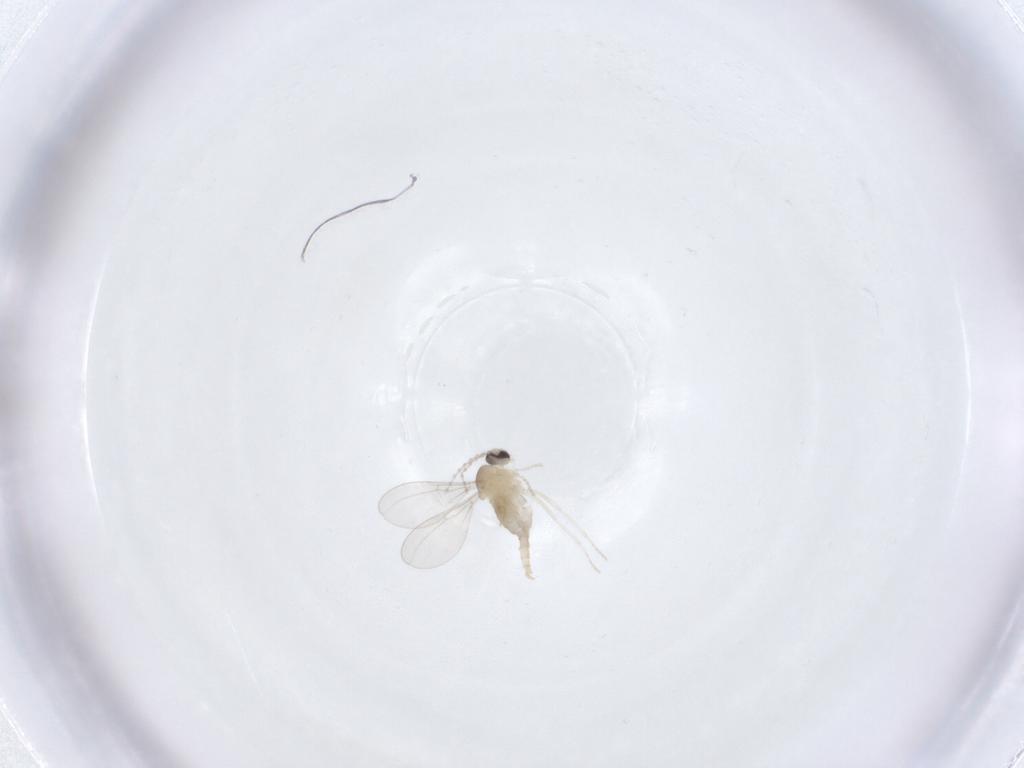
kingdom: Animalia
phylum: Arthropoda
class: Insecta
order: Diptera
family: Cecidomyiidae
